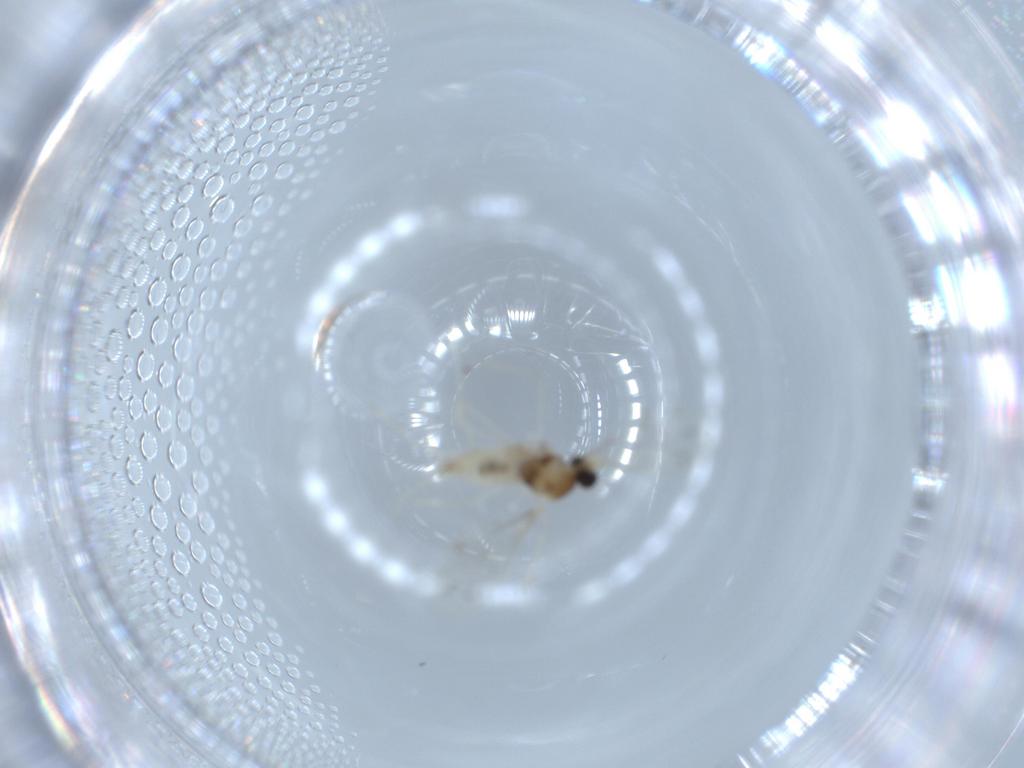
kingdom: Animalia
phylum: Arthropoda
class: Insecta
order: Diptera
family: Cecidomyiidae
